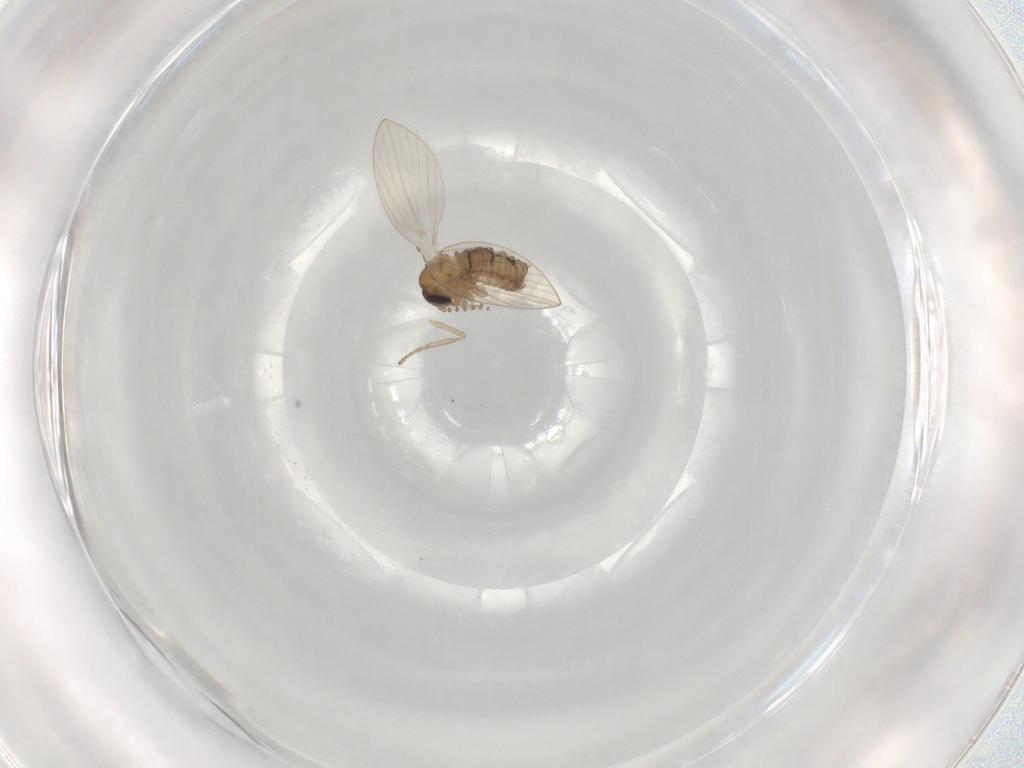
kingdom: Animalia
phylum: Arthropoda
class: Insecta
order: Diptera
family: Psychodidae
